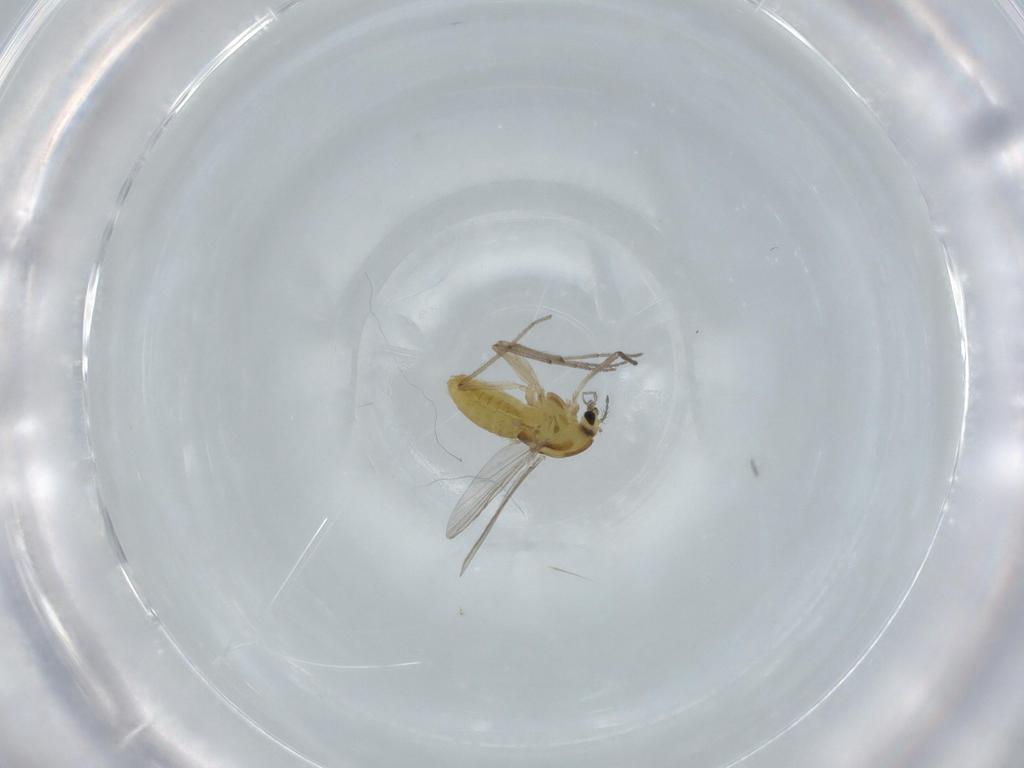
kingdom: Animalia
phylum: Arthropoda
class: Insecta
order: Diptera
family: Chironomidae
